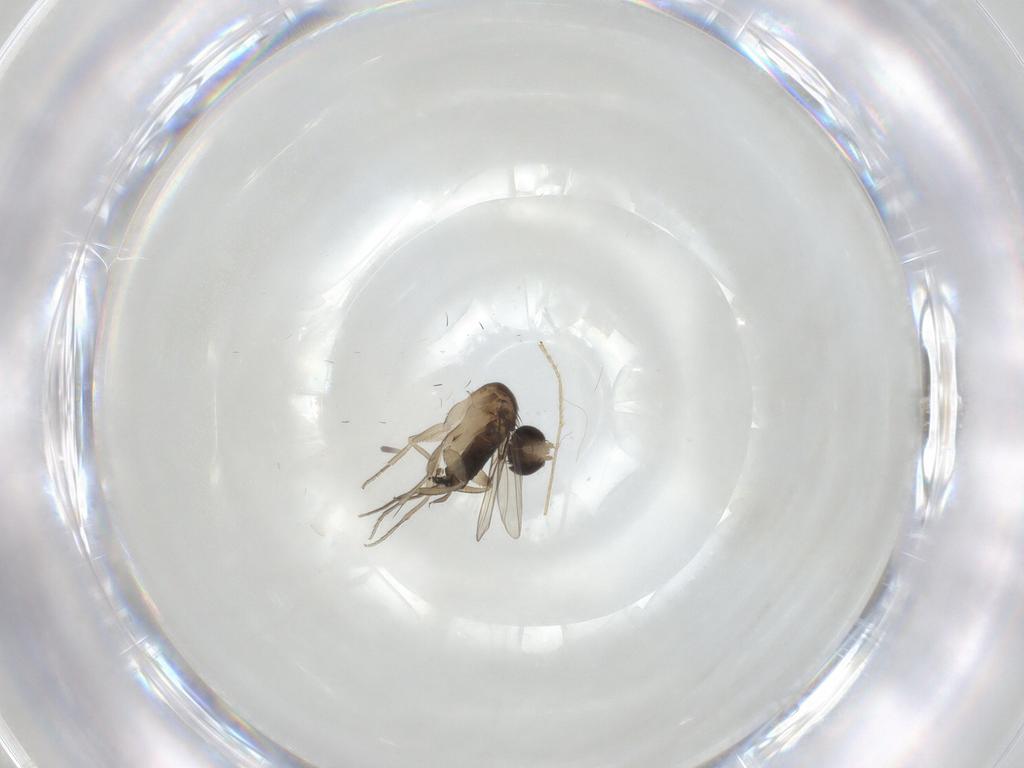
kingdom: Animalia
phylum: Arthropoda
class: Insecta
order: Diptera
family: Limoniidae
